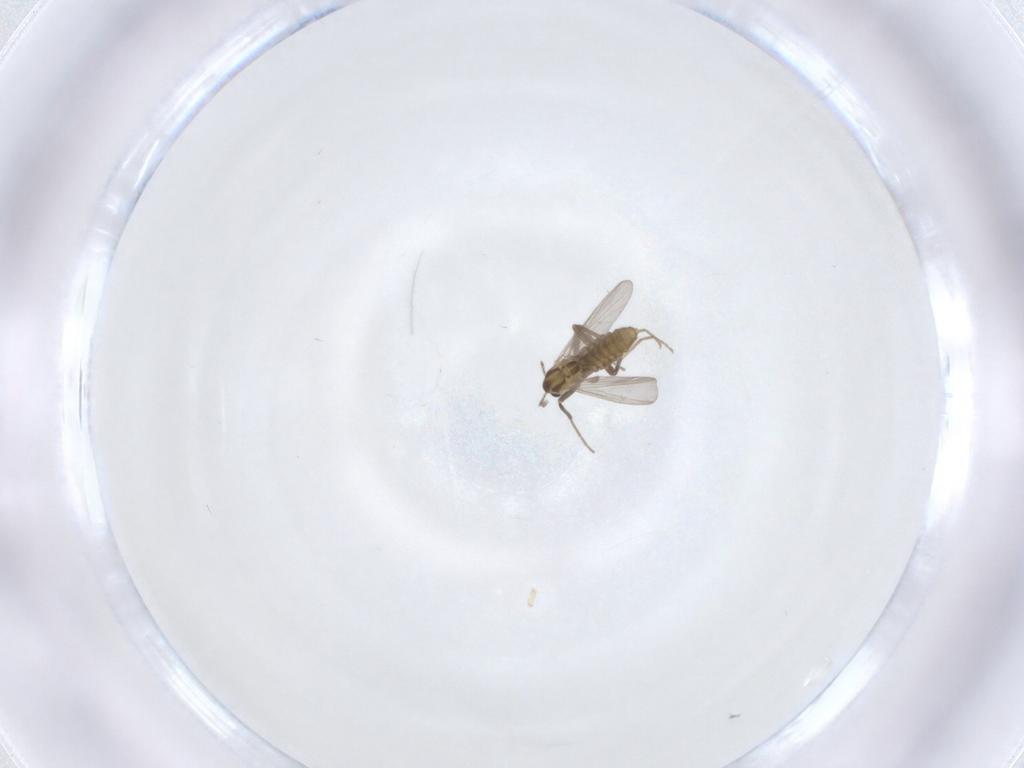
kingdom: Animalia
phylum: Arthropoda
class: Insecta
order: Diptera
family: Chironomidae
